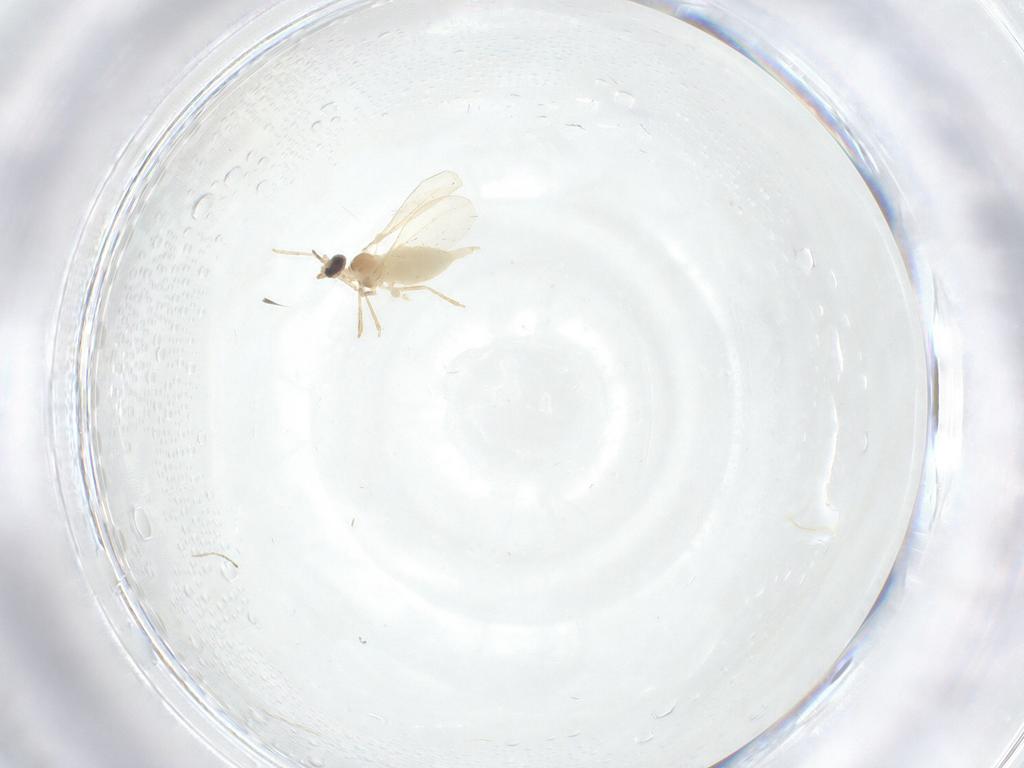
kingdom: Animalia
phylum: Arthropoda
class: Insecta
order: Diptera
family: Cecidomyiidae
